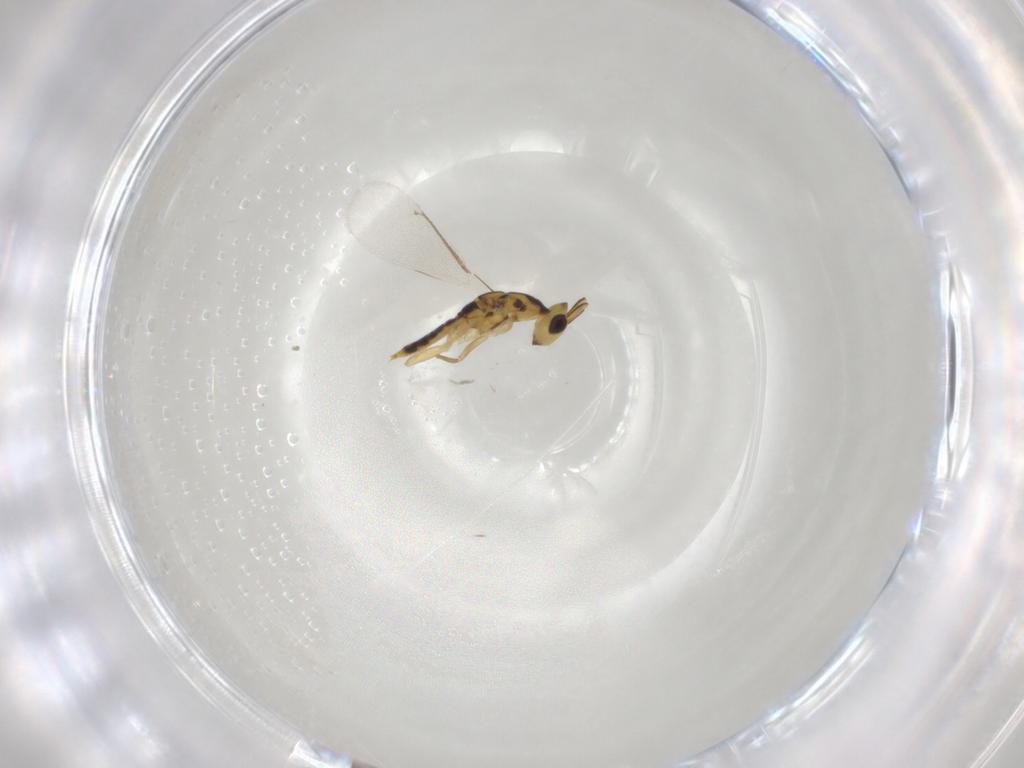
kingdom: Animalia
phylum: Arthropoda
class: Insecta
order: Hymenoptera
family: Eulophidae
